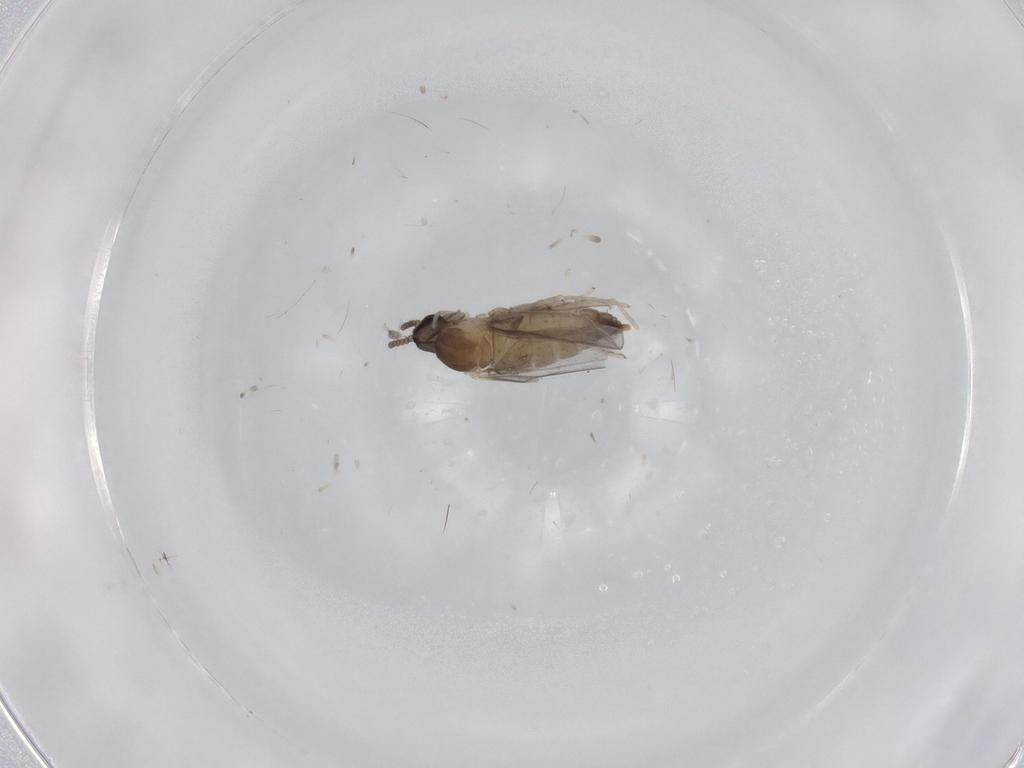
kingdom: Animalia
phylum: Arthropoda
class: Insecta
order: Diptera
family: Cecidomyiidae
